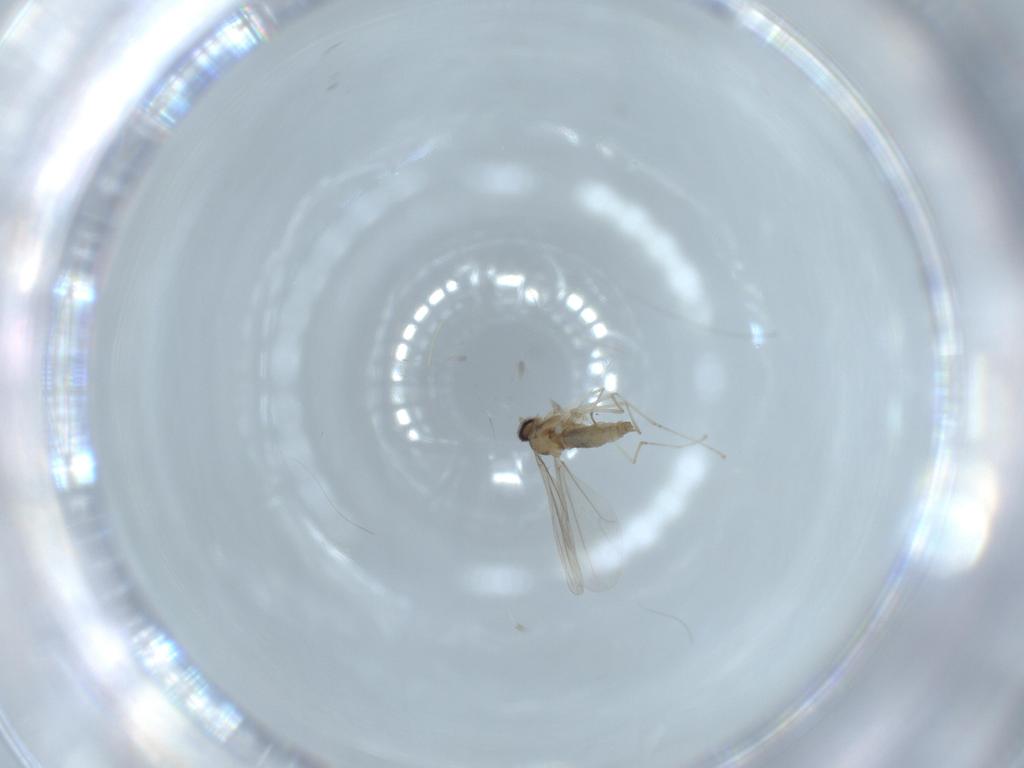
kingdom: Animalia
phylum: Arthropoda
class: Insecta
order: Diptera
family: Cecidomyiidae
